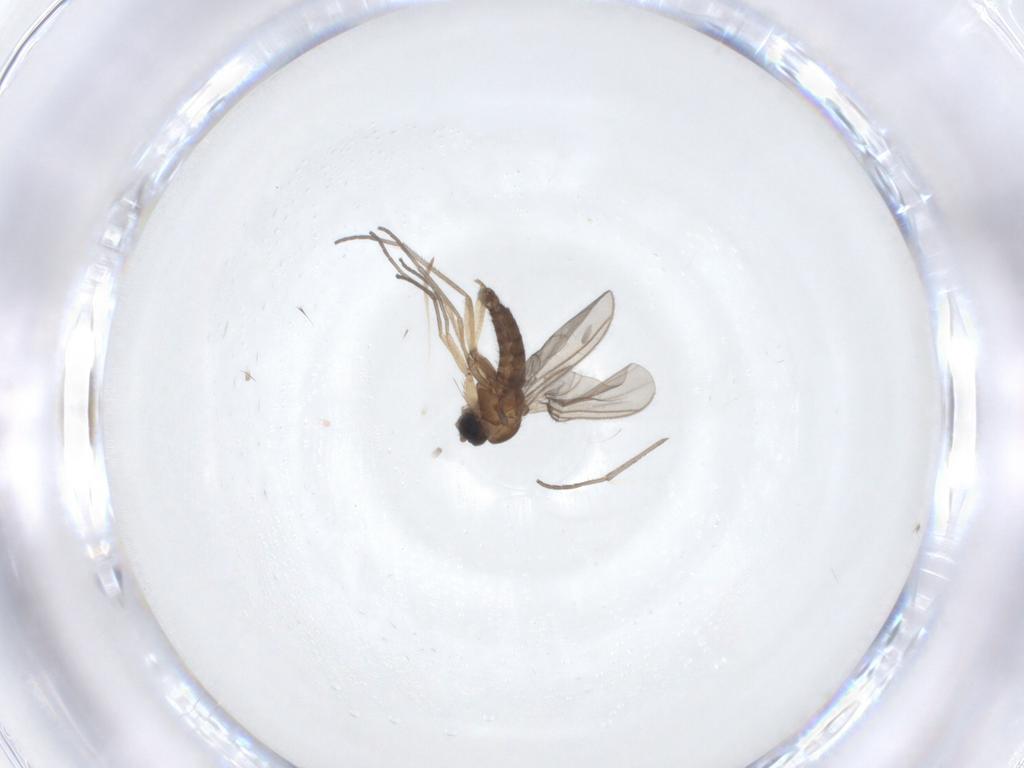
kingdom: Animalia
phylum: Arthropoda
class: Insecta
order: Diptera
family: Sciaridae
